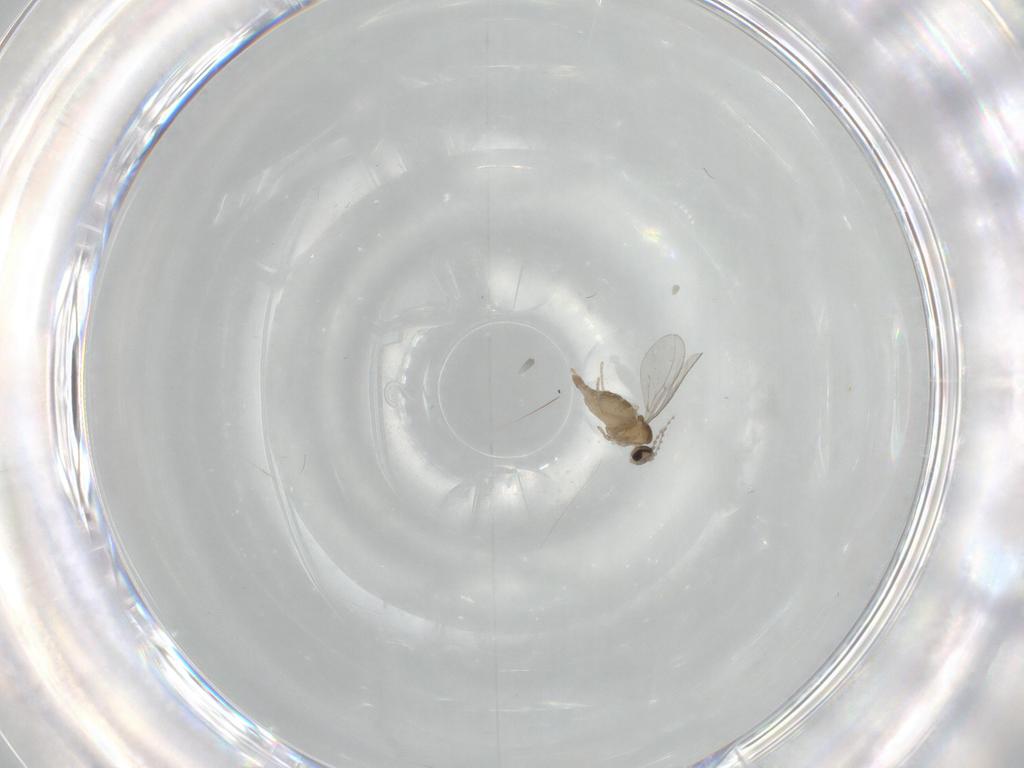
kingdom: Animalia
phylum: Arthropoda
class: Insecta
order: Diptera
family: Cecidomyiidae
